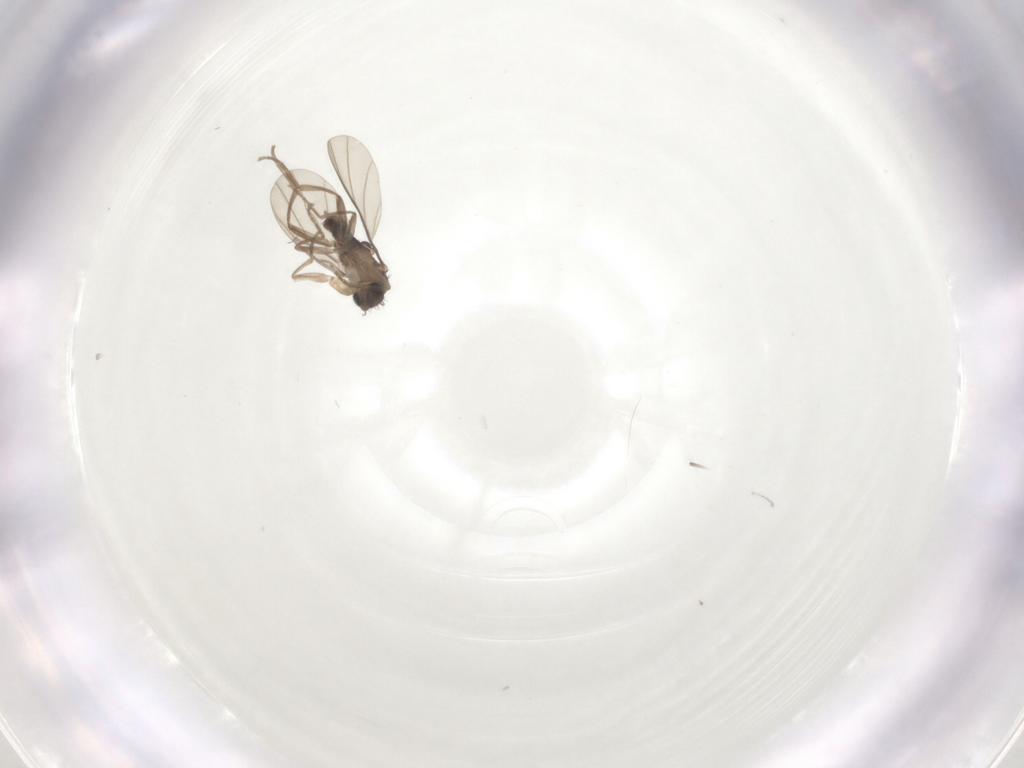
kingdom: Animalia
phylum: Arthropoda
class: Insecta
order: Diptera
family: Phoridae
